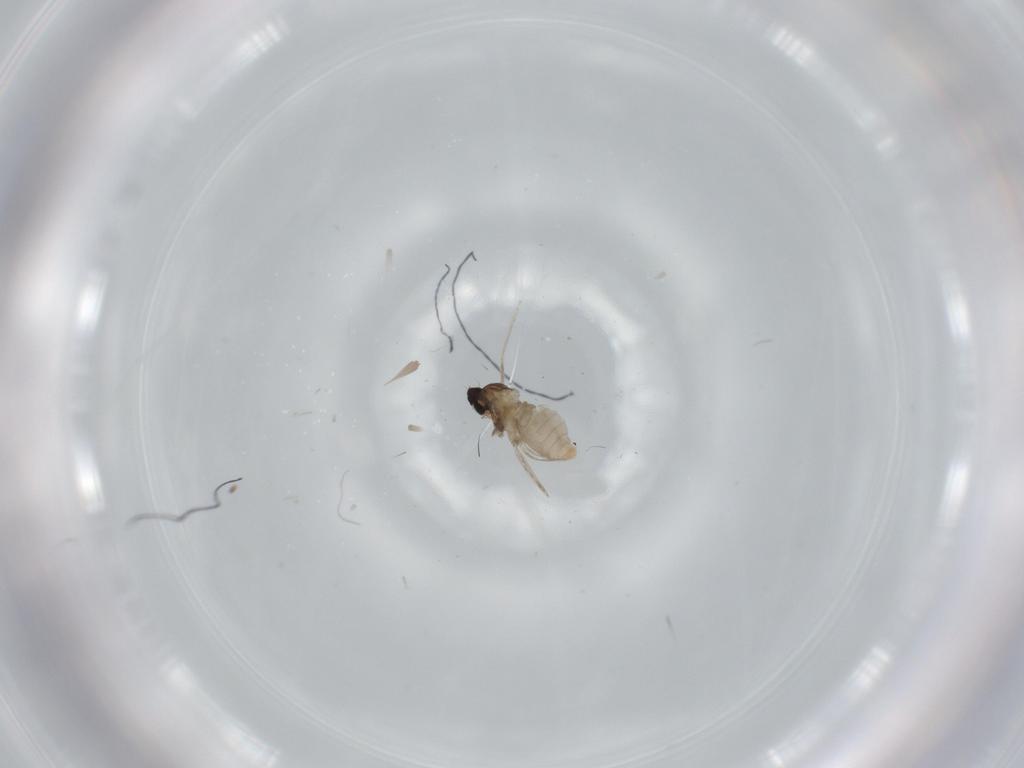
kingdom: Animalia
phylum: Arthropoda
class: Insecta
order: Diptera
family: Cecidomyiidae
